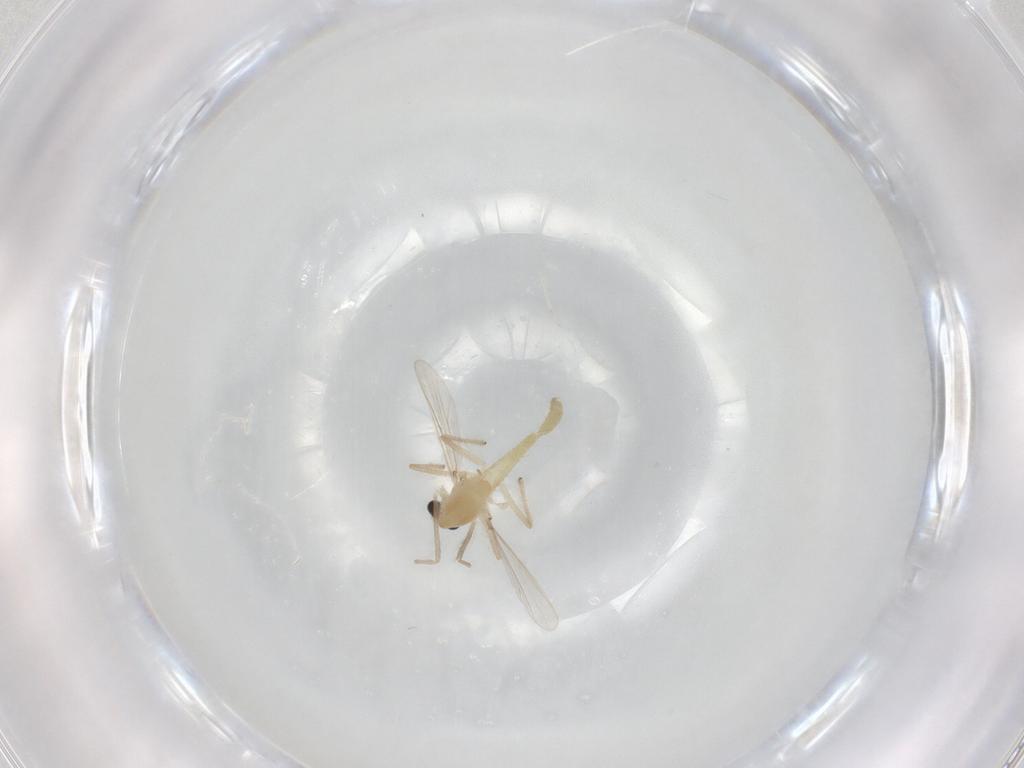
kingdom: Animalia
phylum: Arthropoda
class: Insecta
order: Diptera
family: Chironomidae
